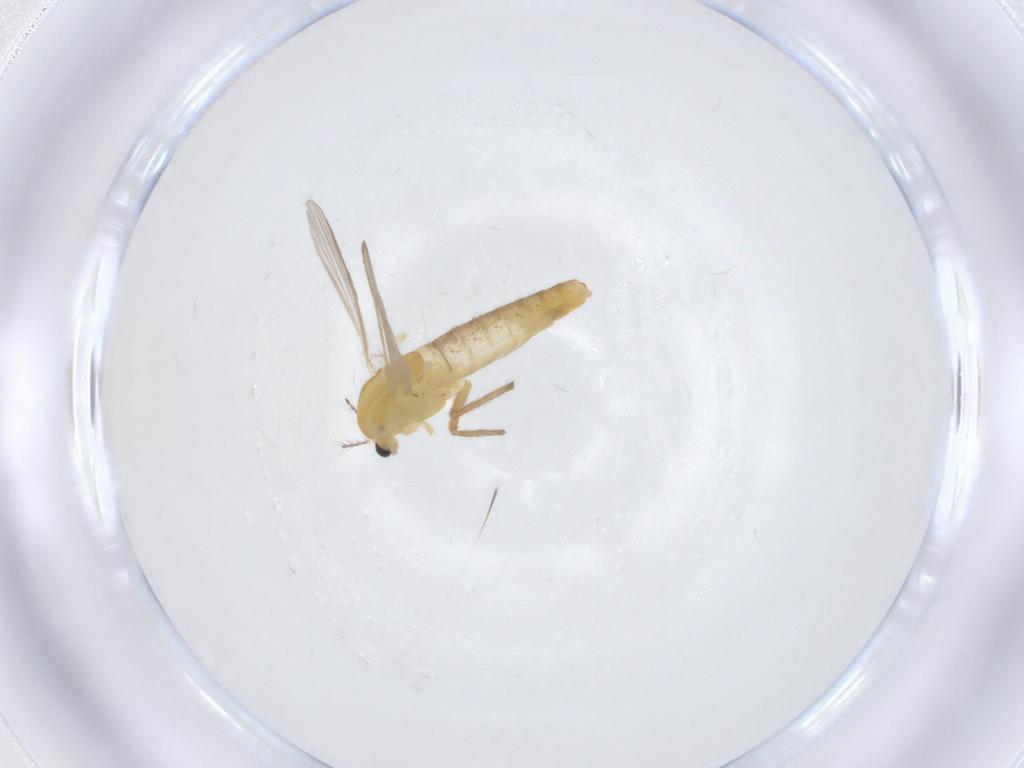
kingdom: Animalia
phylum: Arthropoda
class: Insecta
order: Diptera
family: Chironomidae
